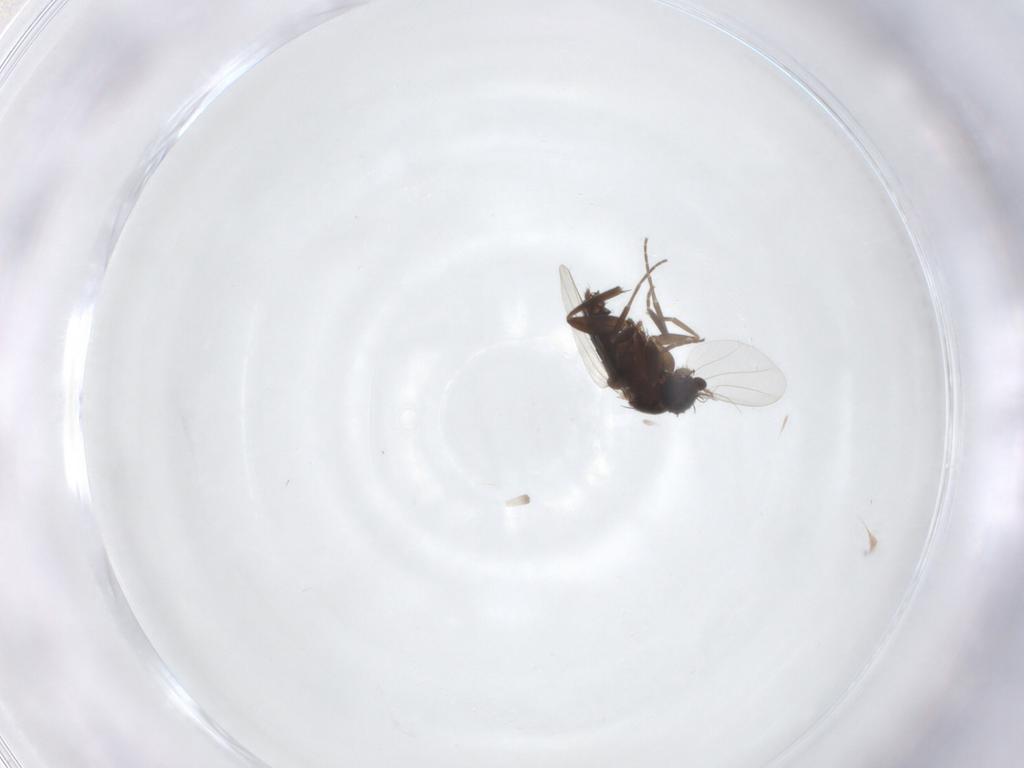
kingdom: Animalia
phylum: Arthropoda
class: Insecta
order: Diptera
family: Phoridae
